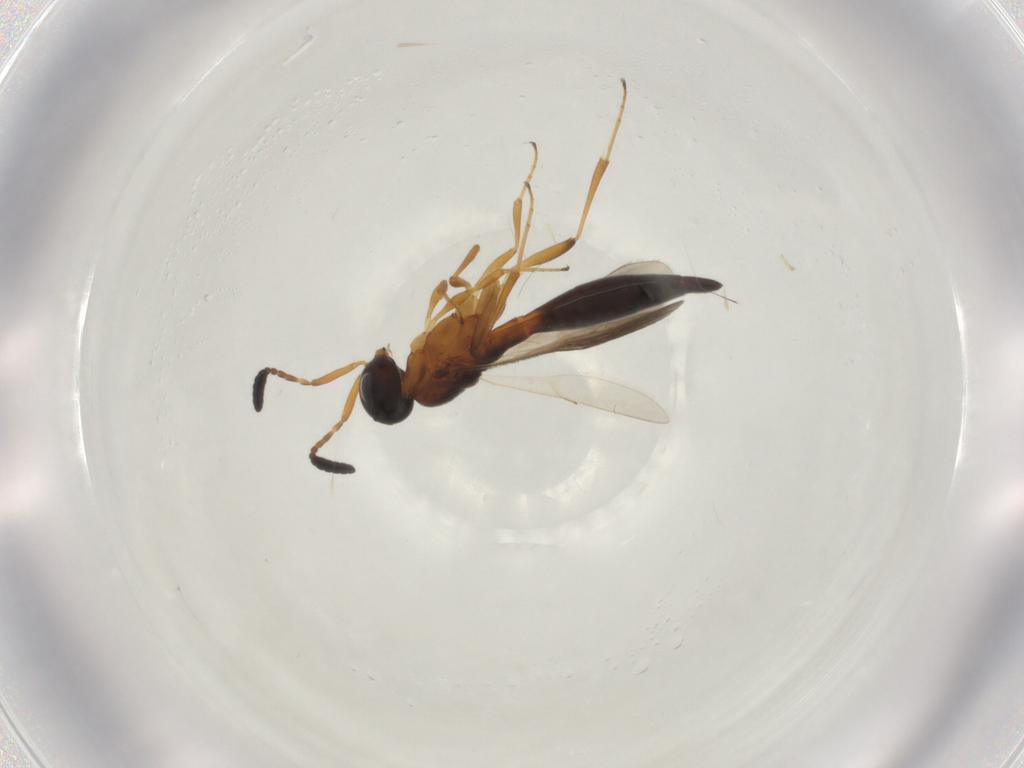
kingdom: Animalia
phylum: Arthropoda
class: Insecta
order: Hymenoptera
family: Scelionidae
